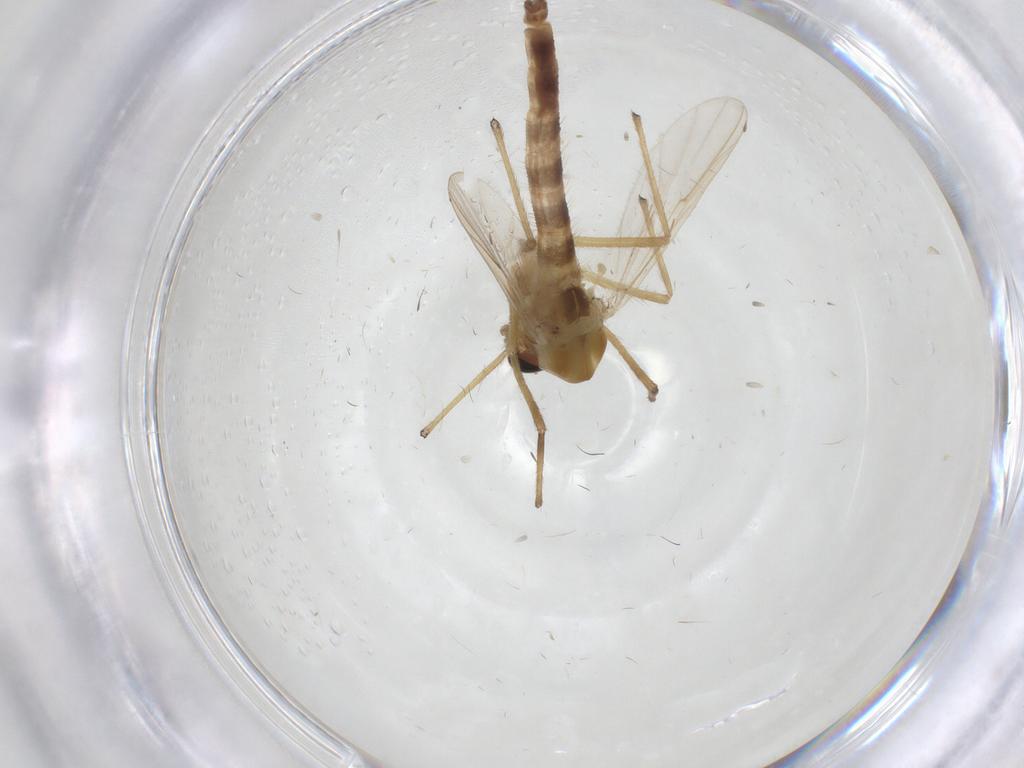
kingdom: Animalia
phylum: Arthropoda
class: Insecta
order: Diptera
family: Chironomidae
